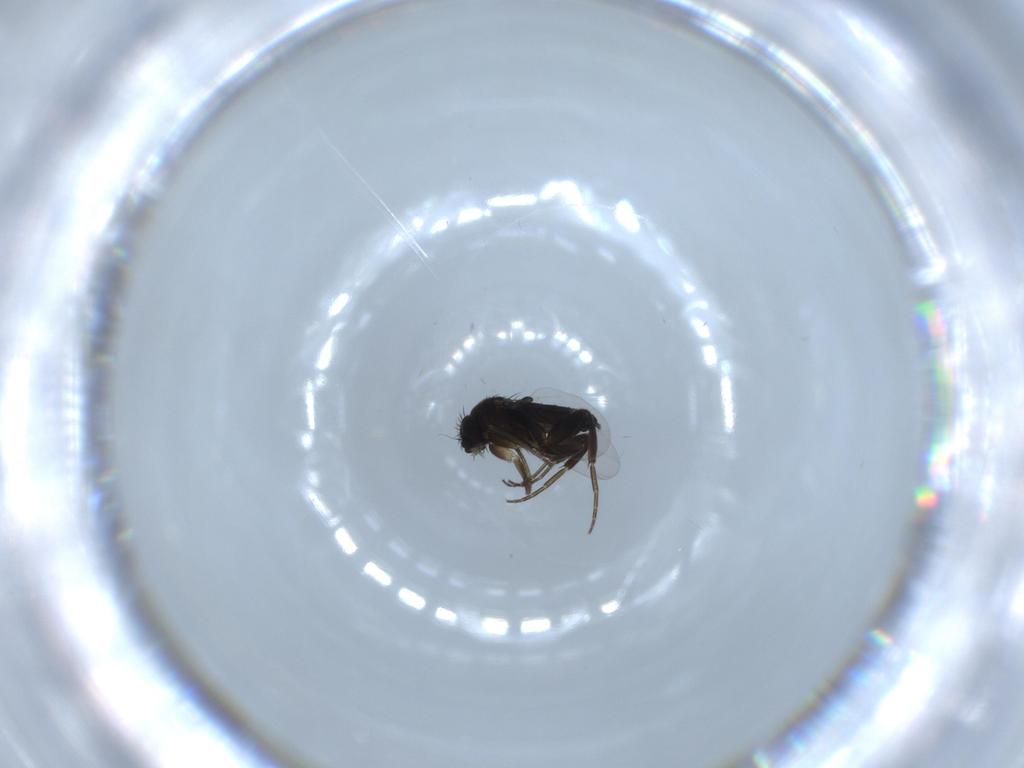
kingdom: Animalia
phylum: Arthropoda
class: Insecta
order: Diptera
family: Phoridae
